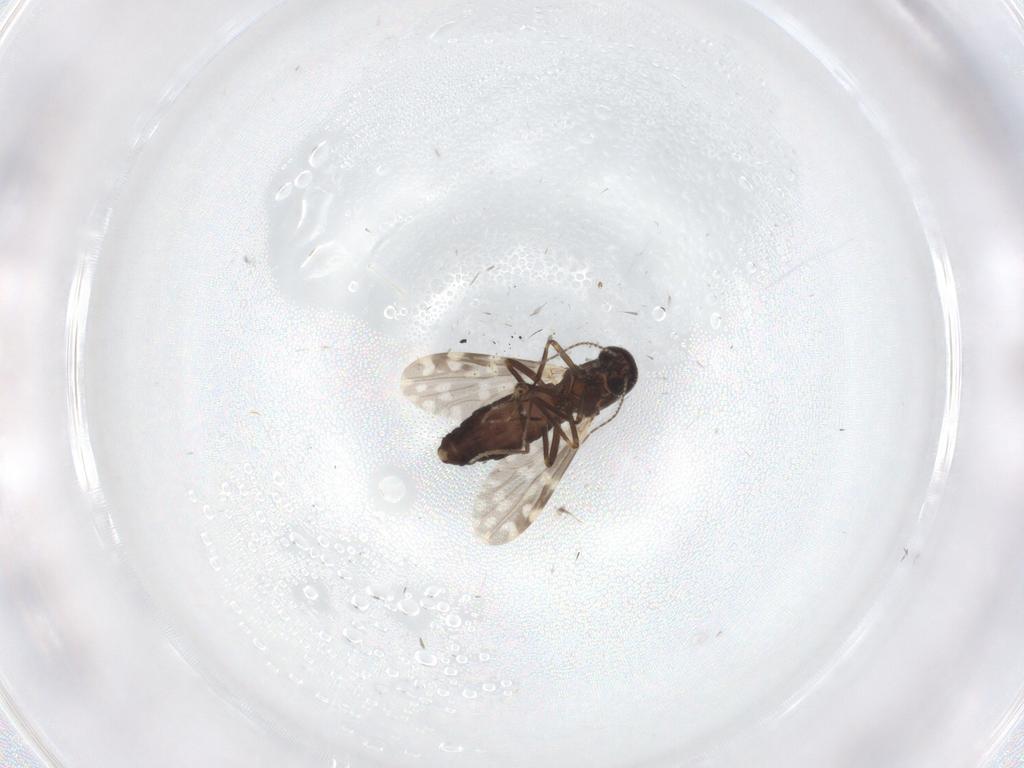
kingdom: Animalia
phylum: Arthropoda
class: Insecta
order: Diptera
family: Ceratopogonidae
